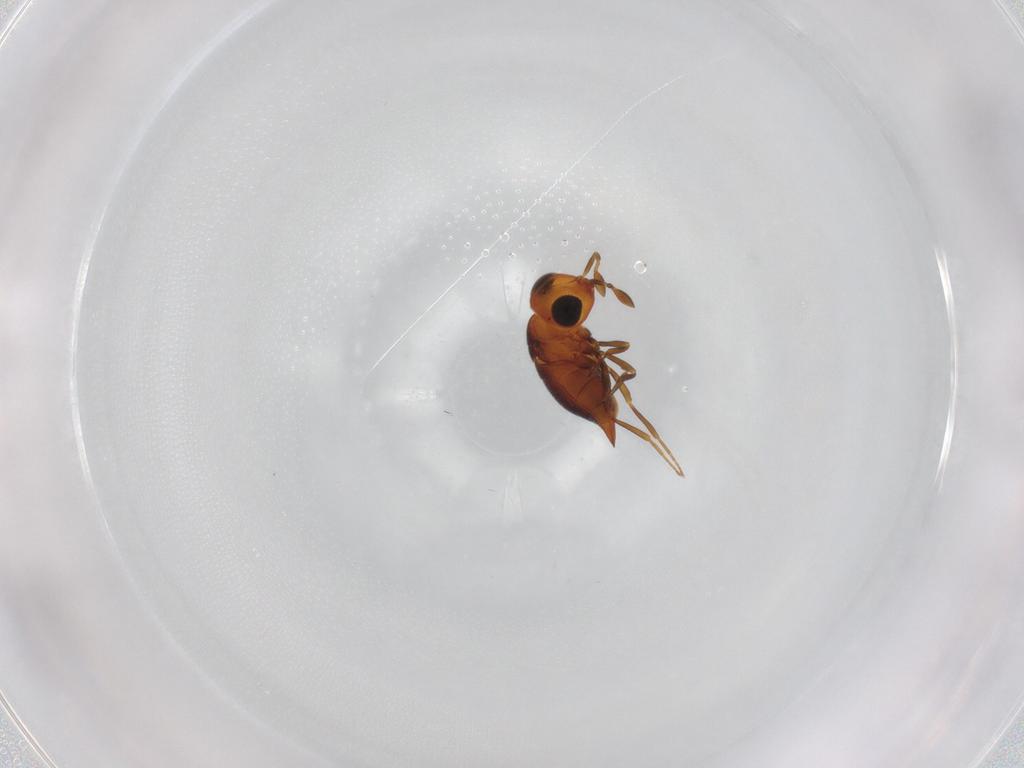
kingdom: Animalia
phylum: Arthropoda
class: Insecta
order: Hymenoptera
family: Scelionidae
